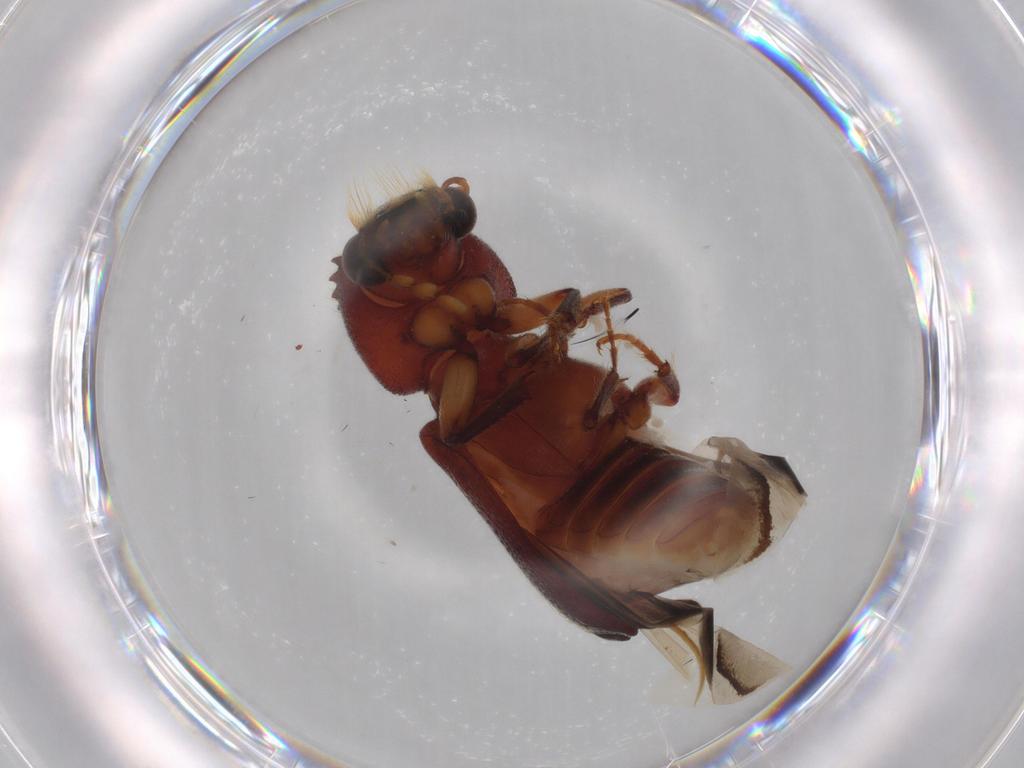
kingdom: Animalia
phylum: Arthropoda
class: Insecta
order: Coleoptera
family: Bostrichidae
